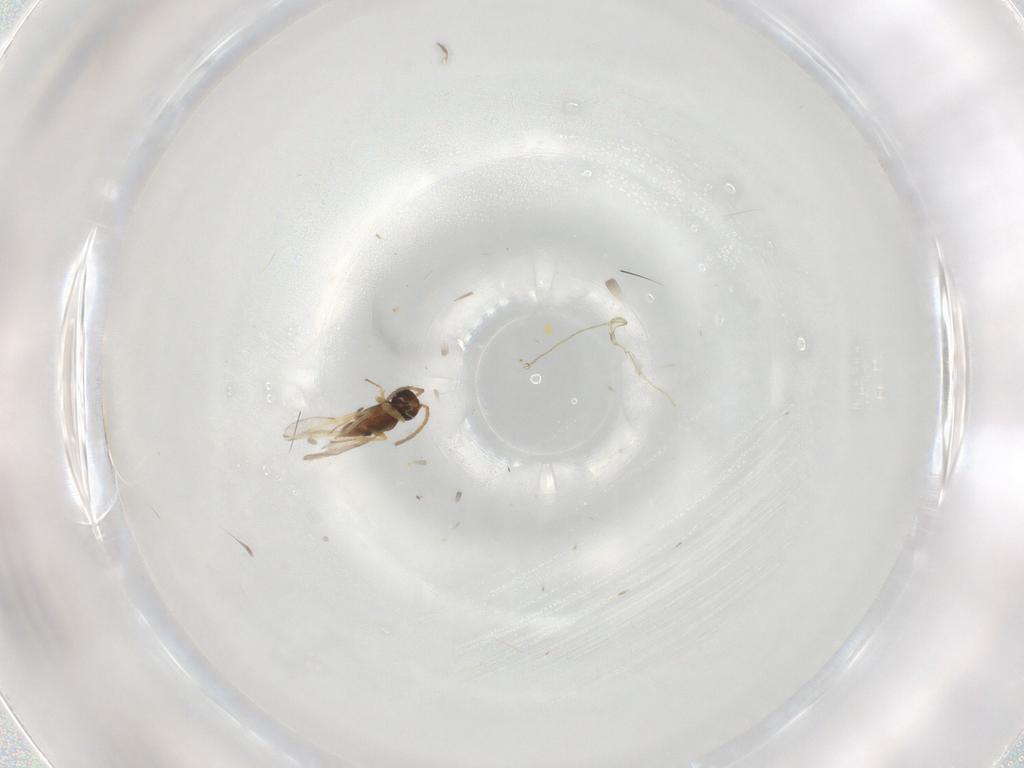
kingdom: Animalia
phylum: Arthropoda
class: Insecta
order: Hymenoptera
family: Encyrtidae
